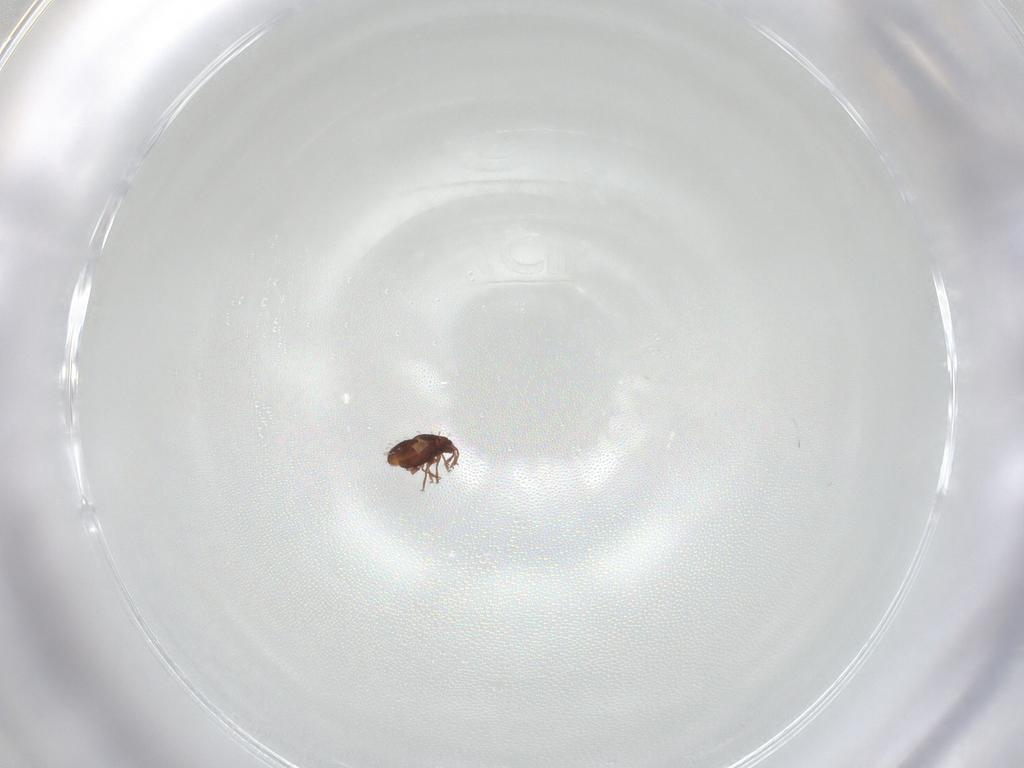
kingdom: Animalia
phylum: Arthropoda
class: Arachnida
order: Sarcoptiformes
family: Scheloribatidae
